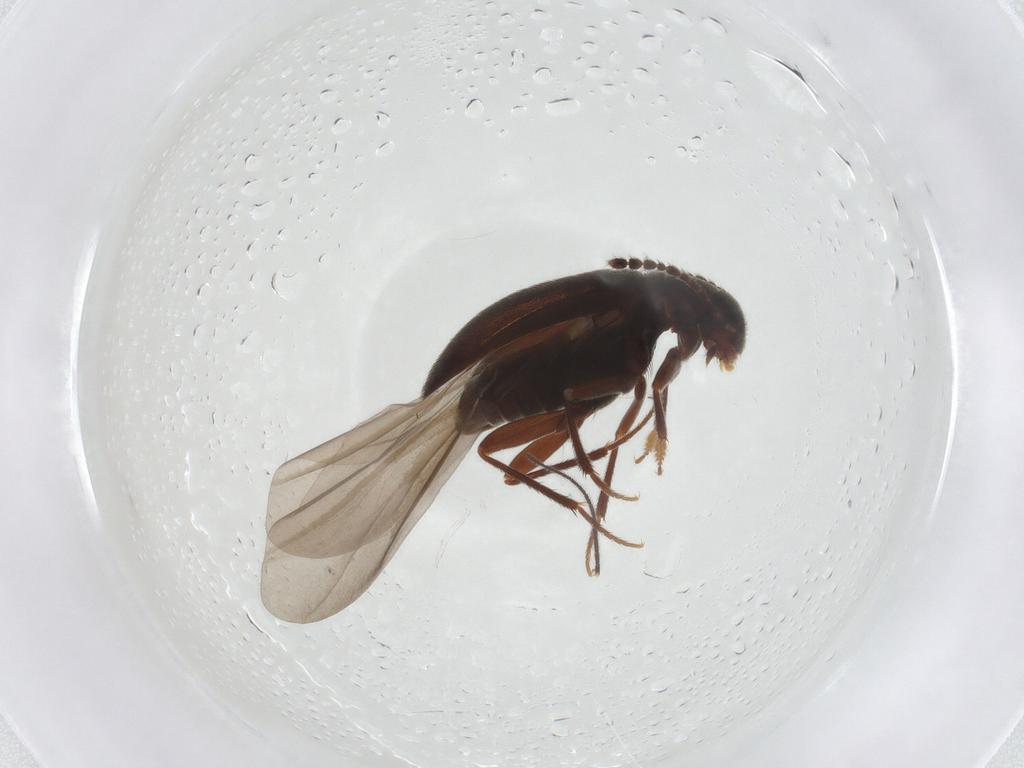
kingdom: Animalia
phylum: Arthropoda
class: Insecta
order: Coleoptera
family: Leiodidae
